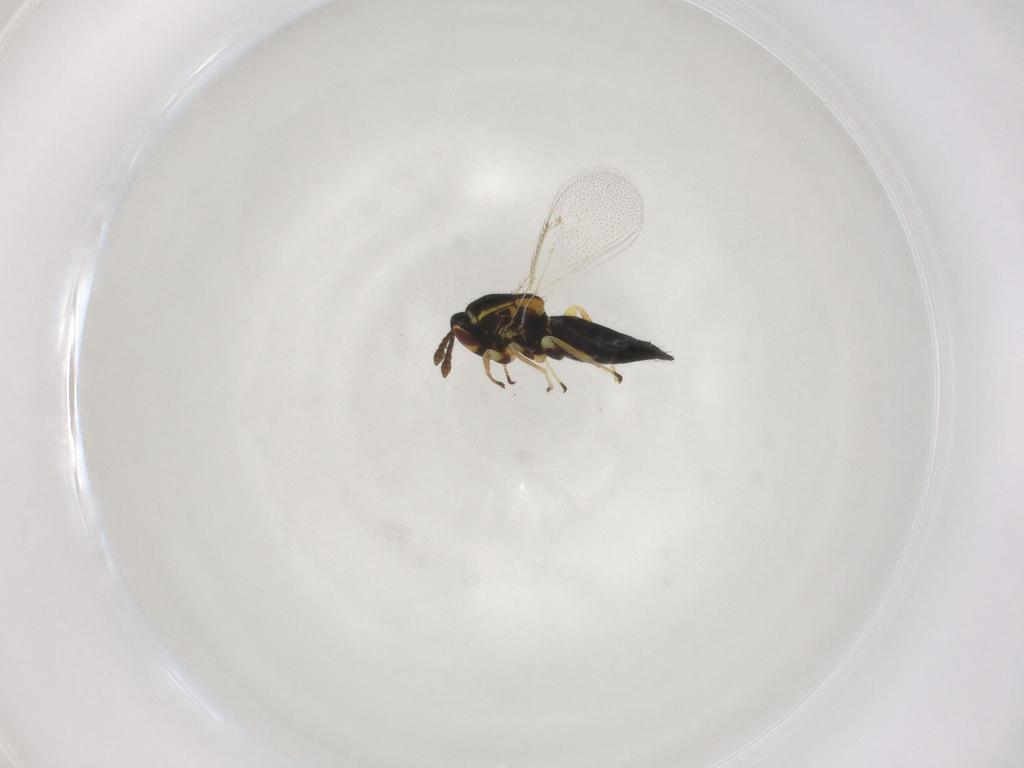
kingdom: Animalia
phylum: Arthropoda
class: Insecta
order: Hymenoptera
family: Eulophidae
